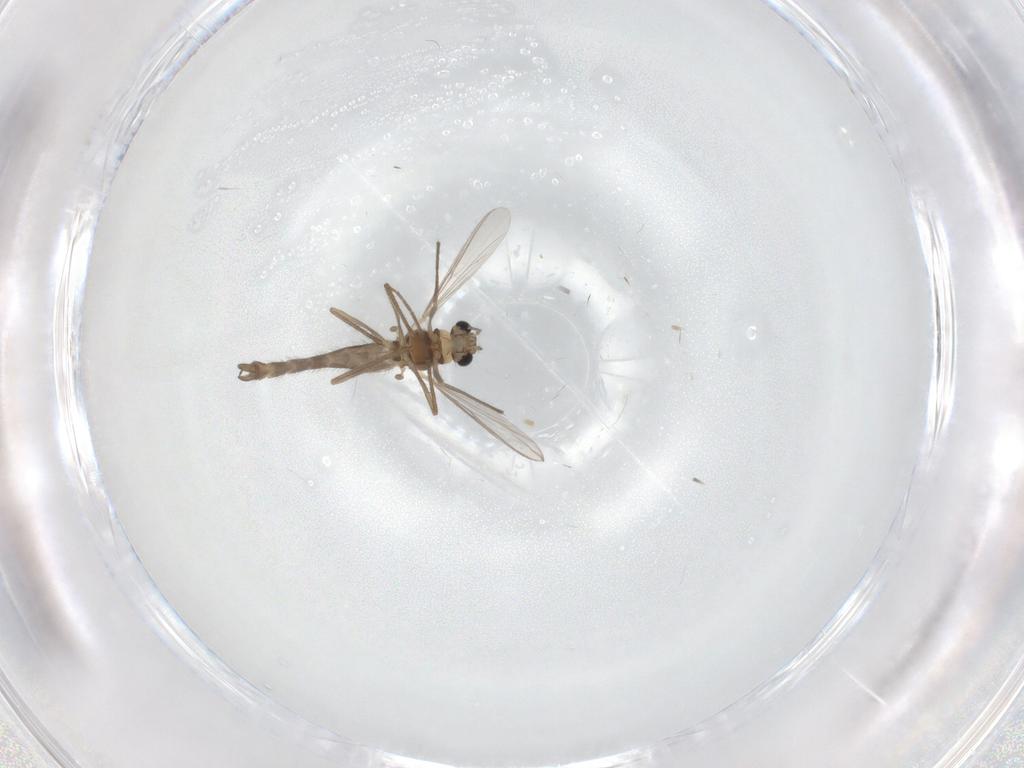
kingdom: Animalia
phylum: Arthropoda
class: Insecta
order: Diptera
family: Chironomidae
